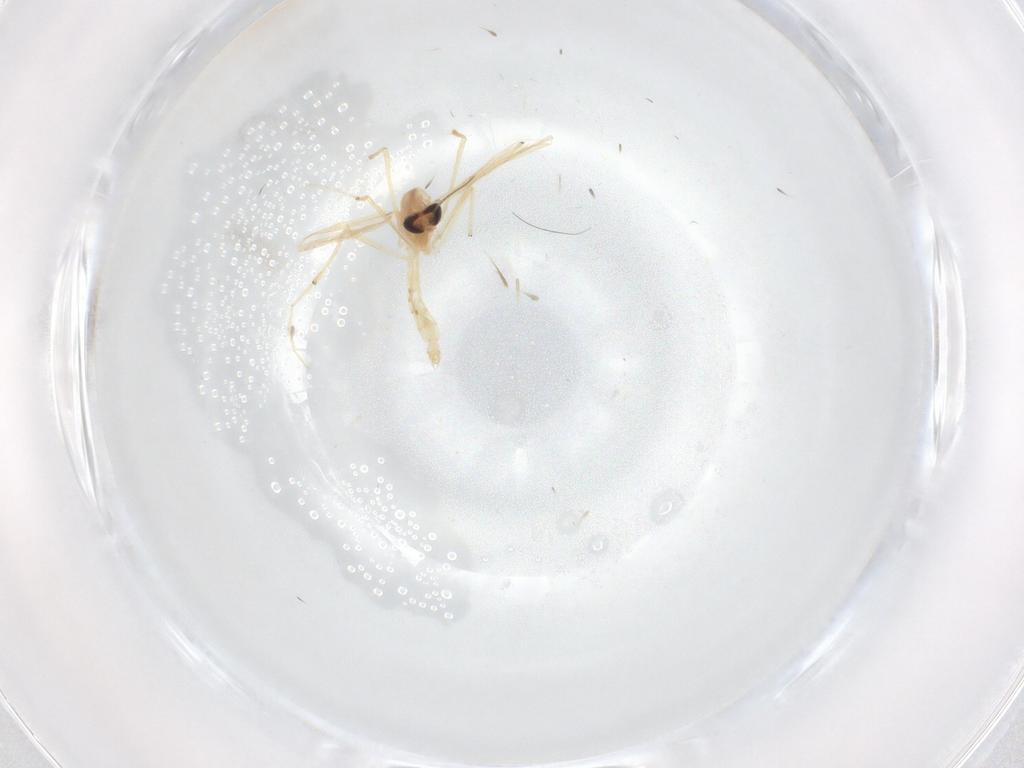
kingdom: Animalia
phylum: Arthropoda
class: Insecta
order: Diptera
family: Chironomidae
